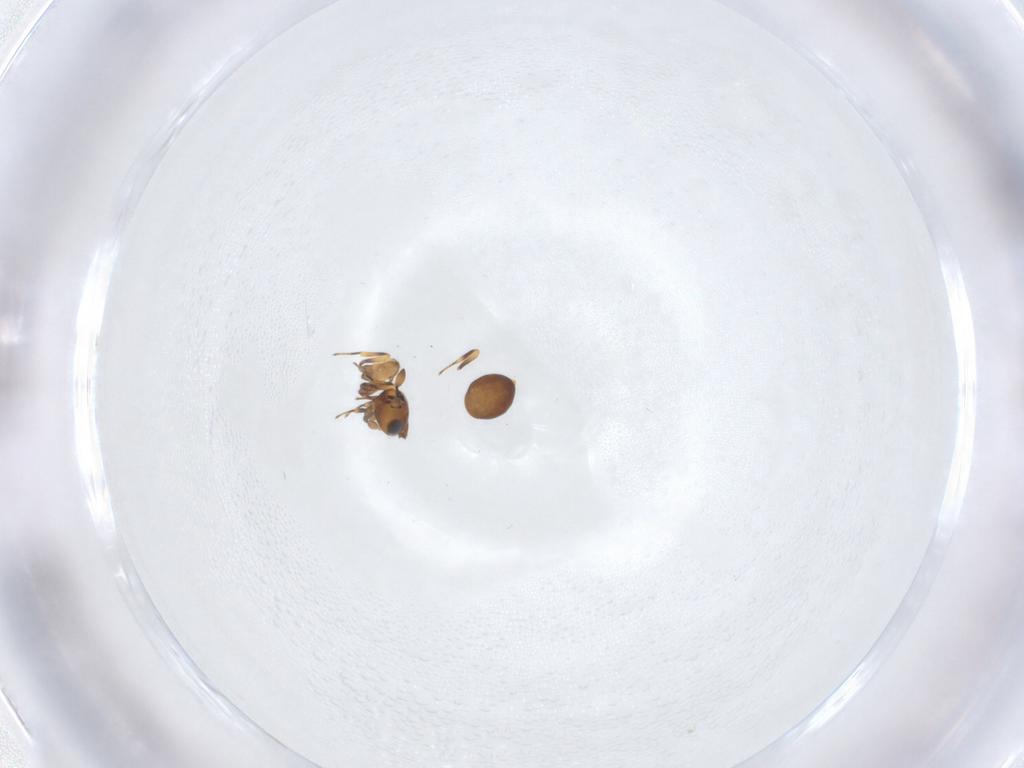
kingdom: Animalia
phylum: Arthropoda
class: Insecta
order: Hymenoptera
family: Scelionidae
